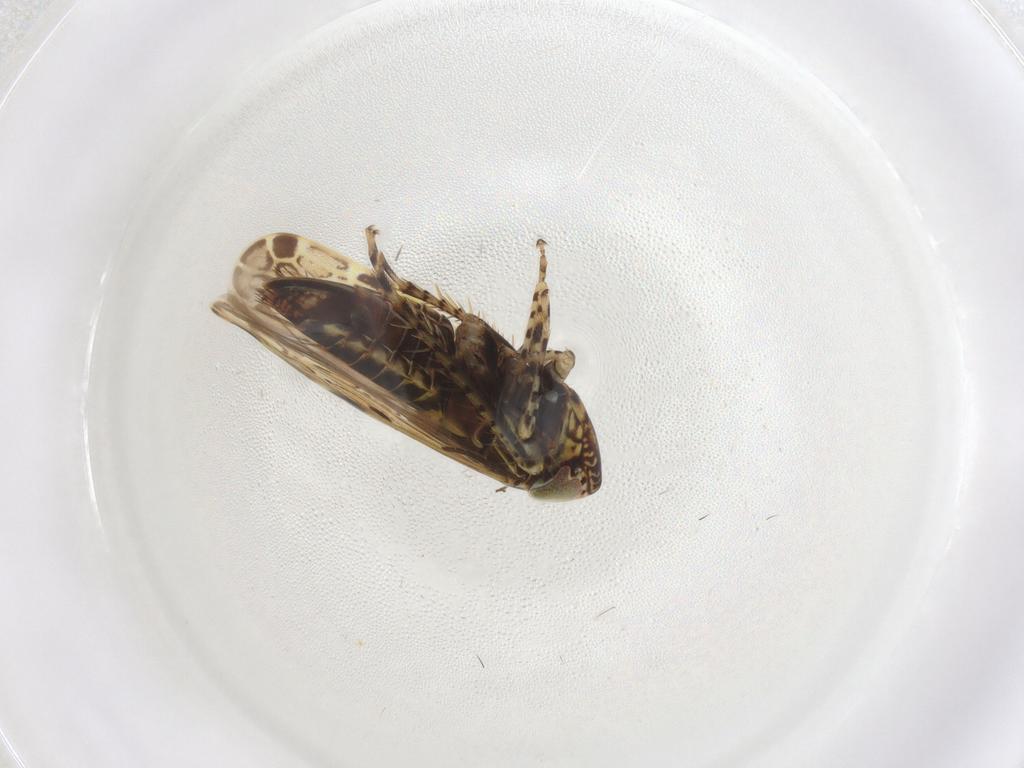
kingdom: Animalia
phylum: Arthropoda
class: Insecta
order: Hemiptera
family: Cicadellidae
